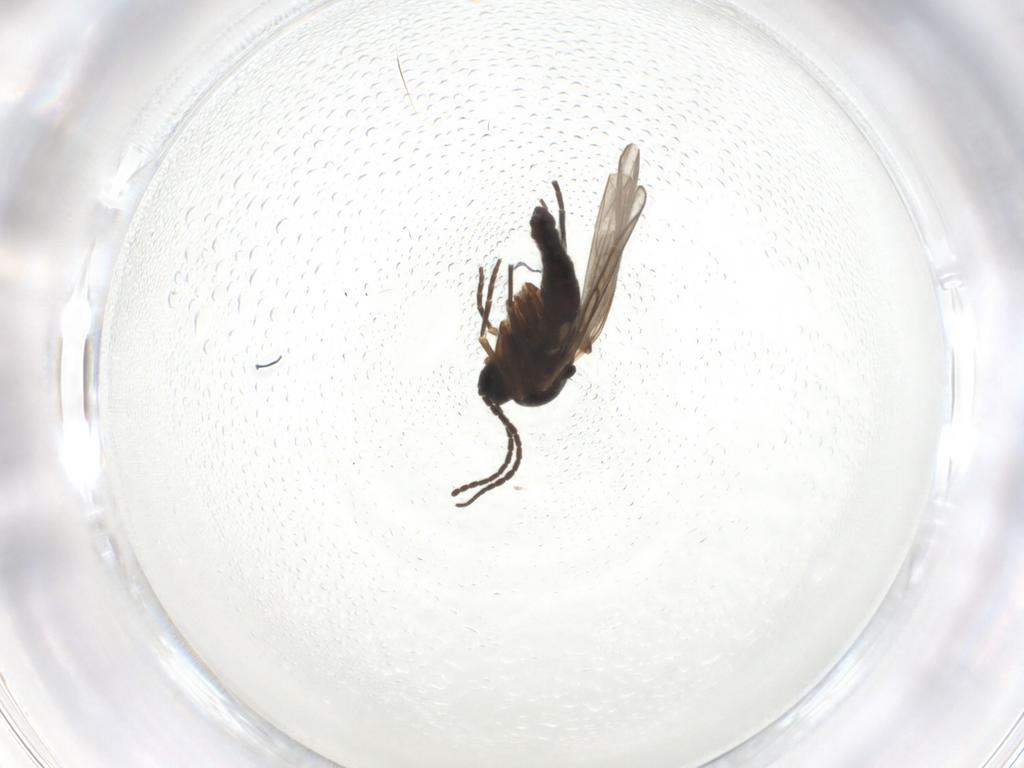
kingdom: Animalia
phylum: Arthropoda
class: Insecta
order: Diptera
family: Sciaridae
